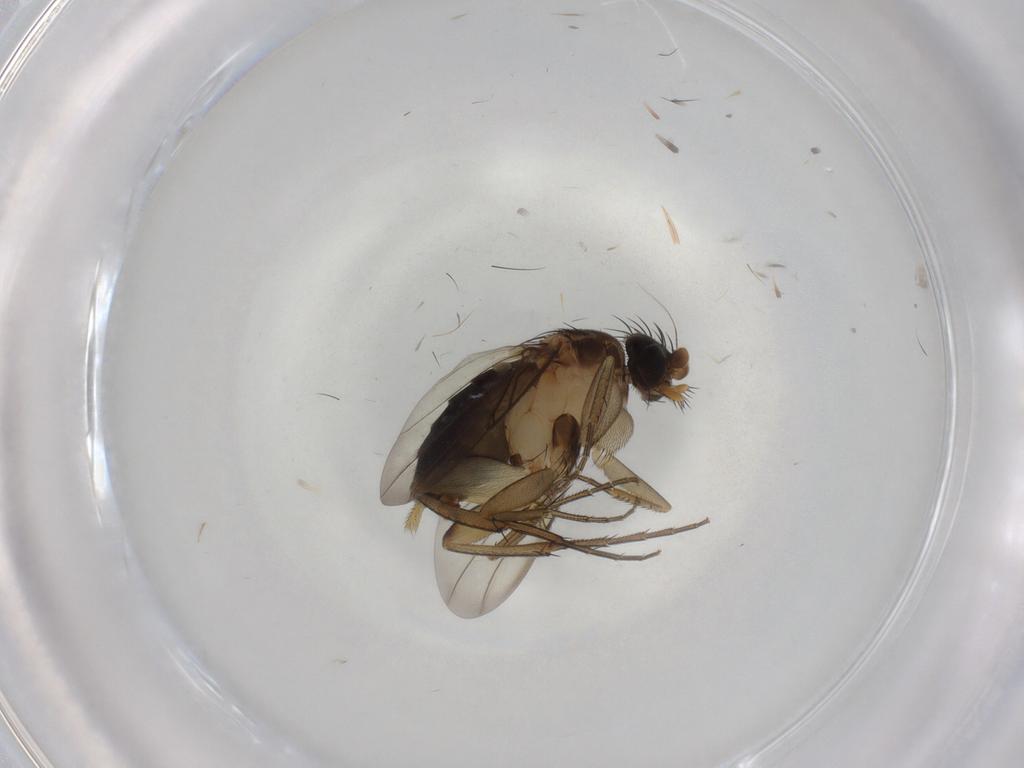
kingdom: Animalia
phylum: Arthropoda
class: Insecta
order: Diptera
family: Phoridae
